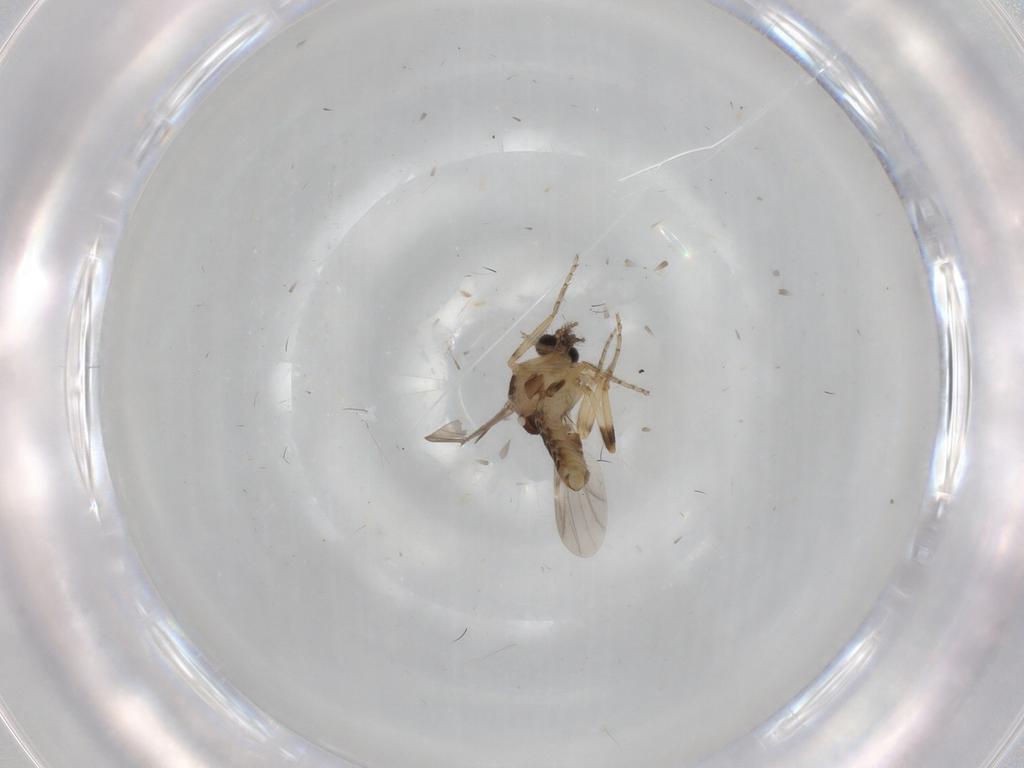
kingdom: Animalia
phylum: Arthropoda
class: Insecta
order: Diptera
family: Ceratopogonidae
